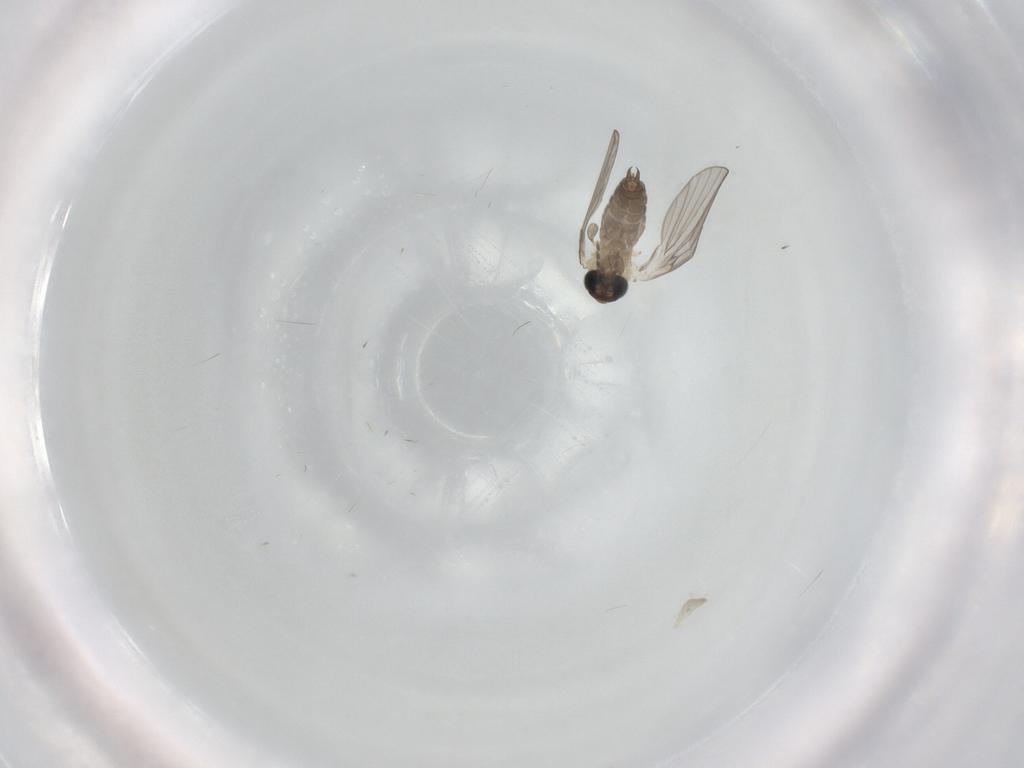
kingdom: Animalia
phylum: Arthropoda
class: Insecta
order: Diptera
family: Psychodidae
